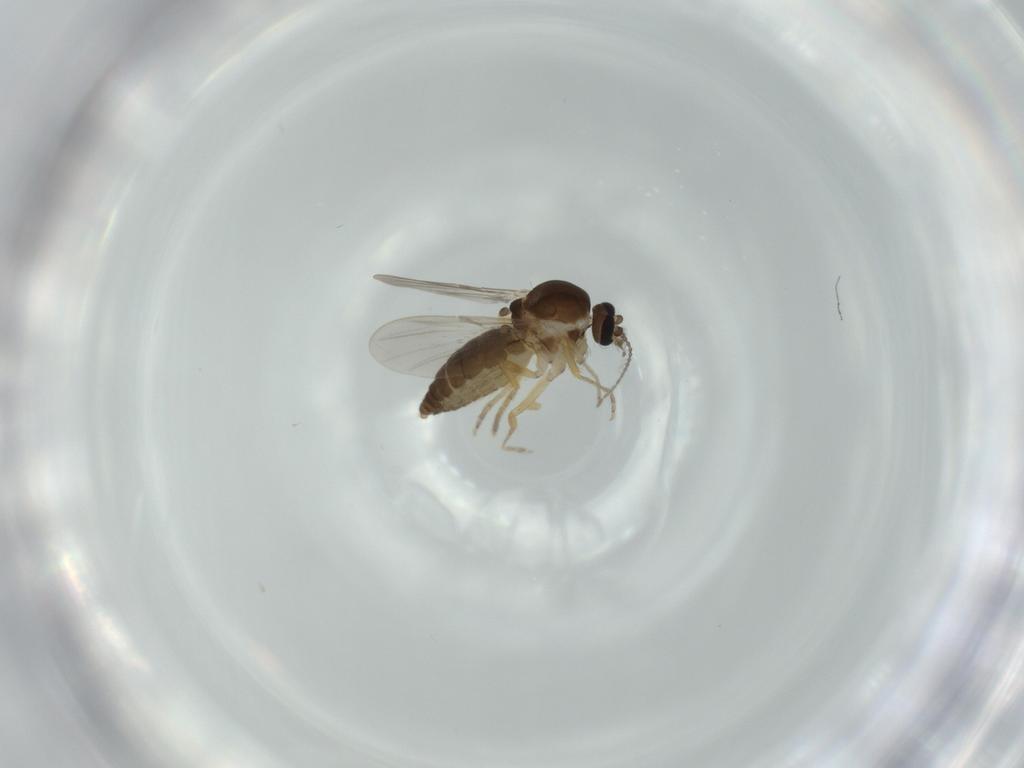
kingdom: Animalia
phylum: Arthropoda
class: Insecta
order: Diptera
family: Ceratopogonidae
